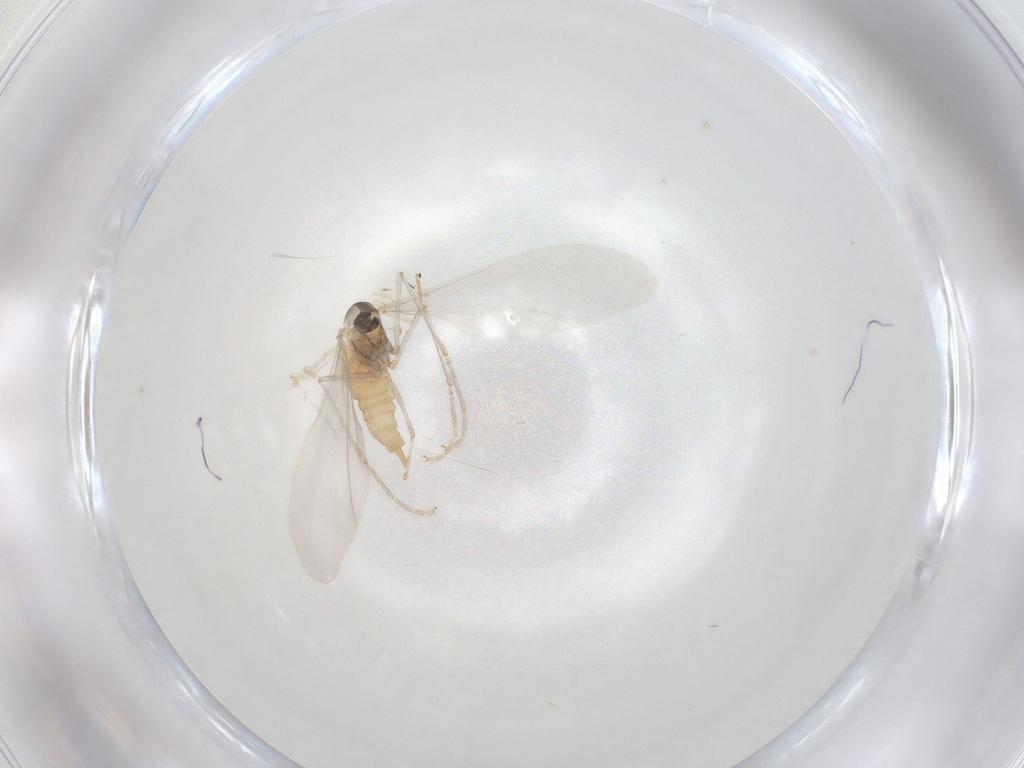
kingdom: Animalia
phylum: Arthropoda
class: Insecta
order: Diptera
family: Cecidomyiidae
